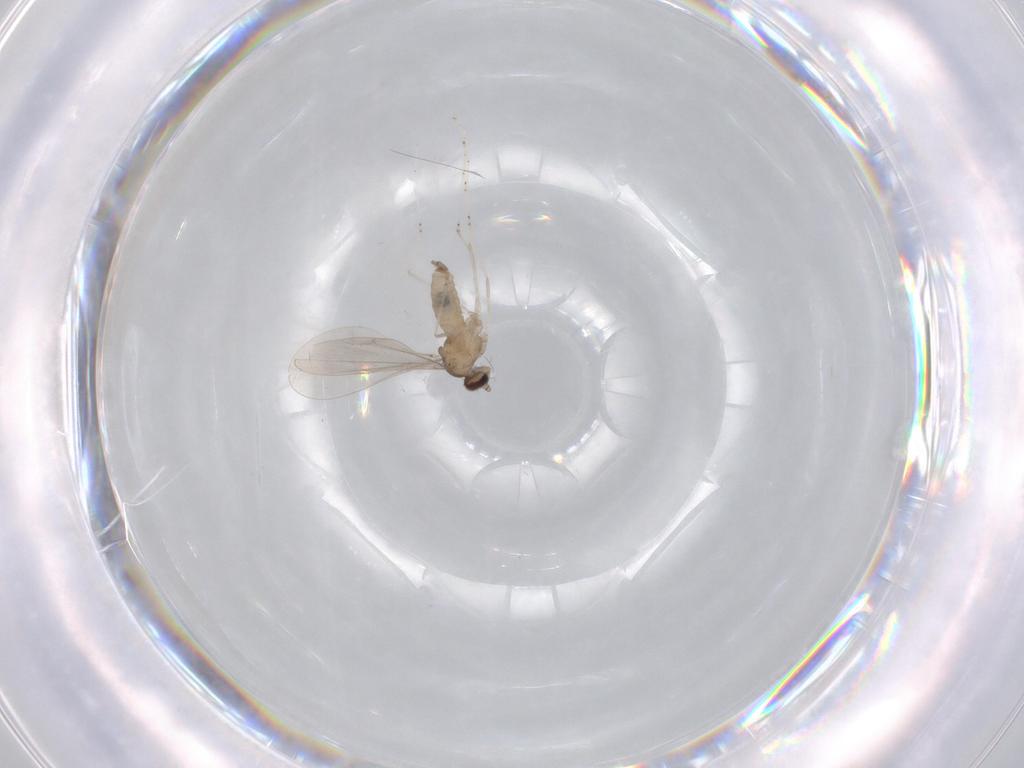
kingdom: Animalia
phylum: Arthropoda
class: Insecta
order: Diptera
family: Cecidomyiidae
